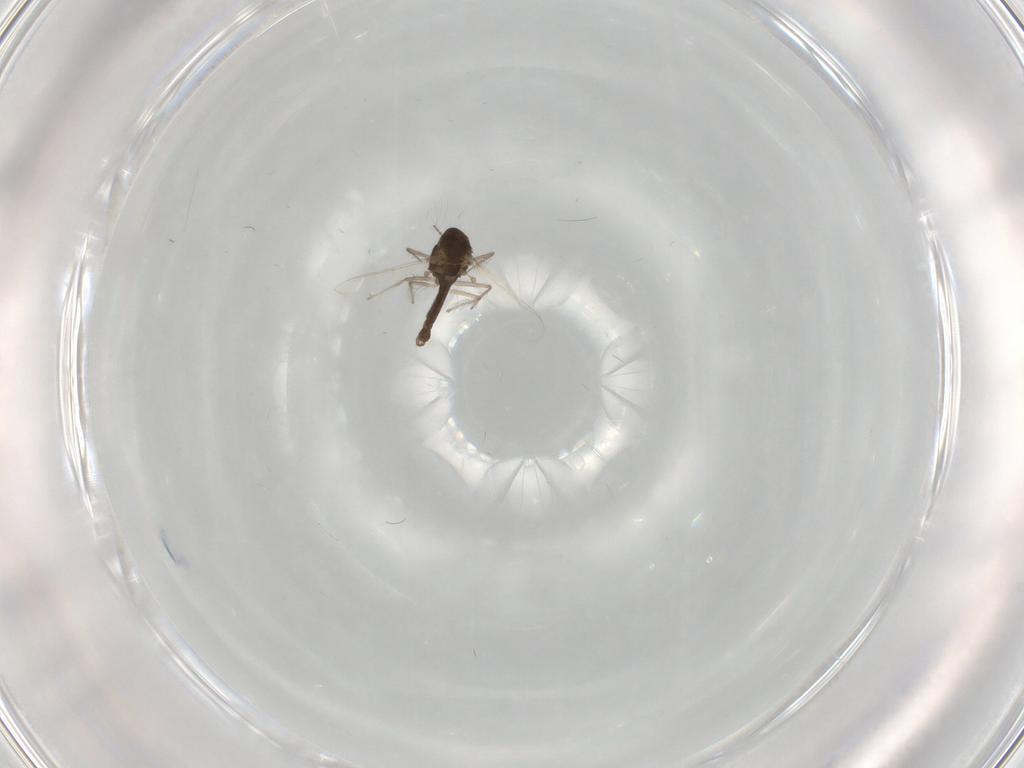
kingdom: Animalia
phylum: Arthropoda
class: Insecta
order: Diptera
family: Chironomidae
